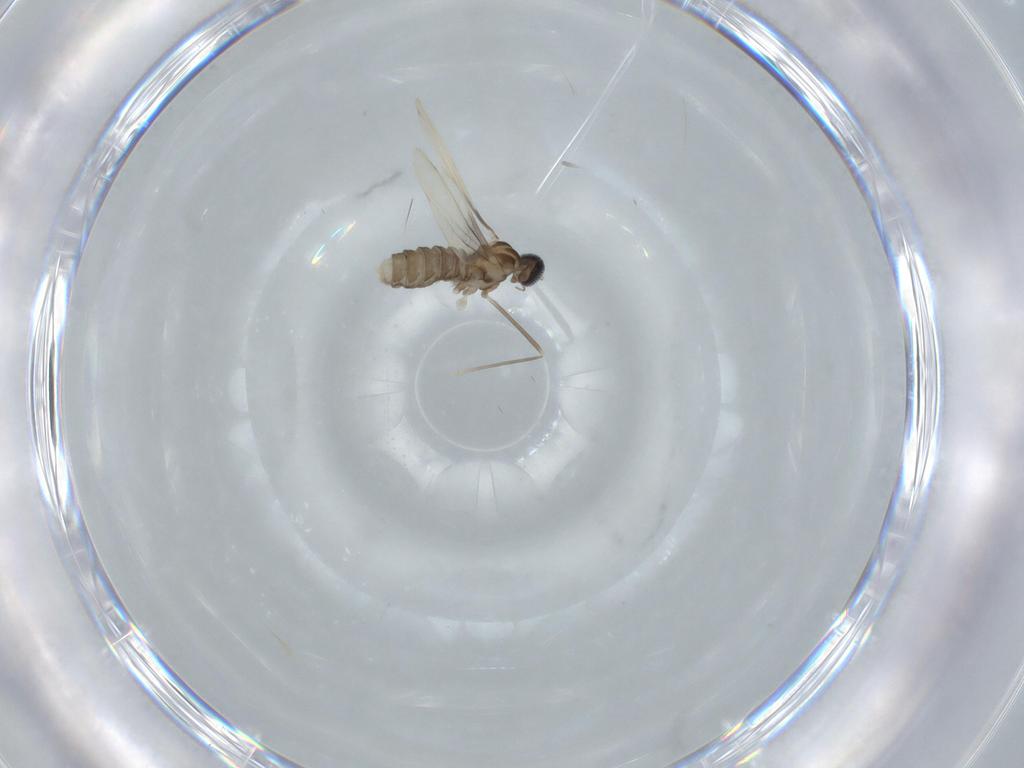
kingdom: Animalia
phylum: Arthropoda
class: Insecta
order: Diptera
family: Cecidomyiidae
